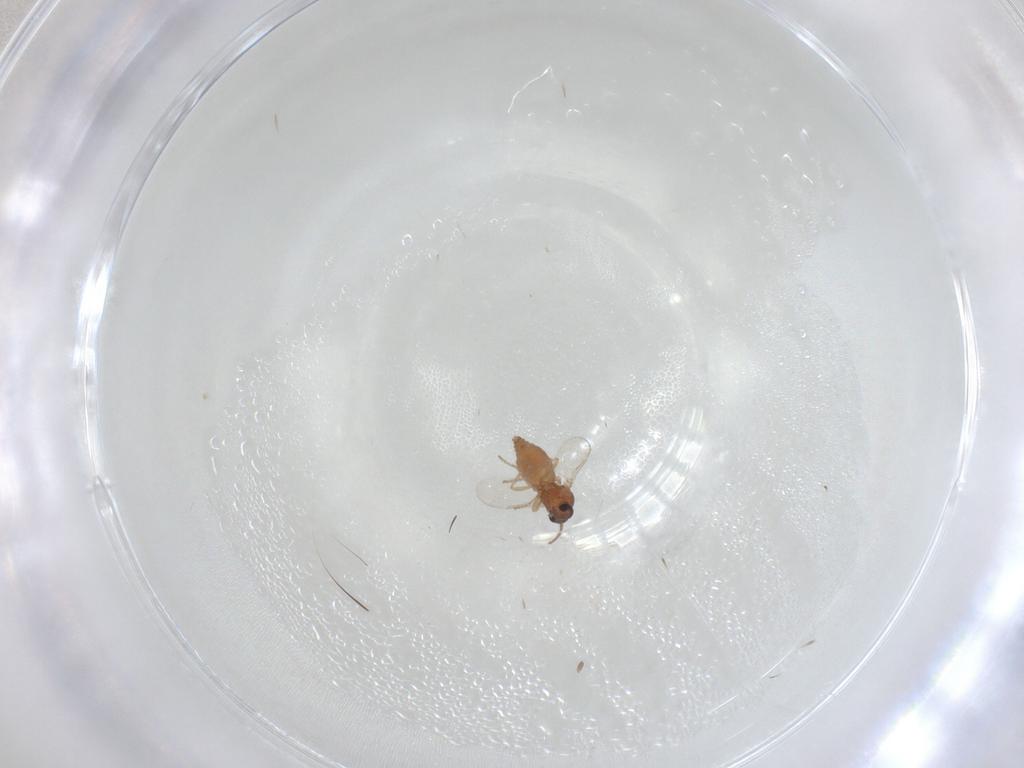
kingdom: Animalia
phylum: Arthropoda
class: Insecta
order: Diptera
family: Ceratopogonidae
